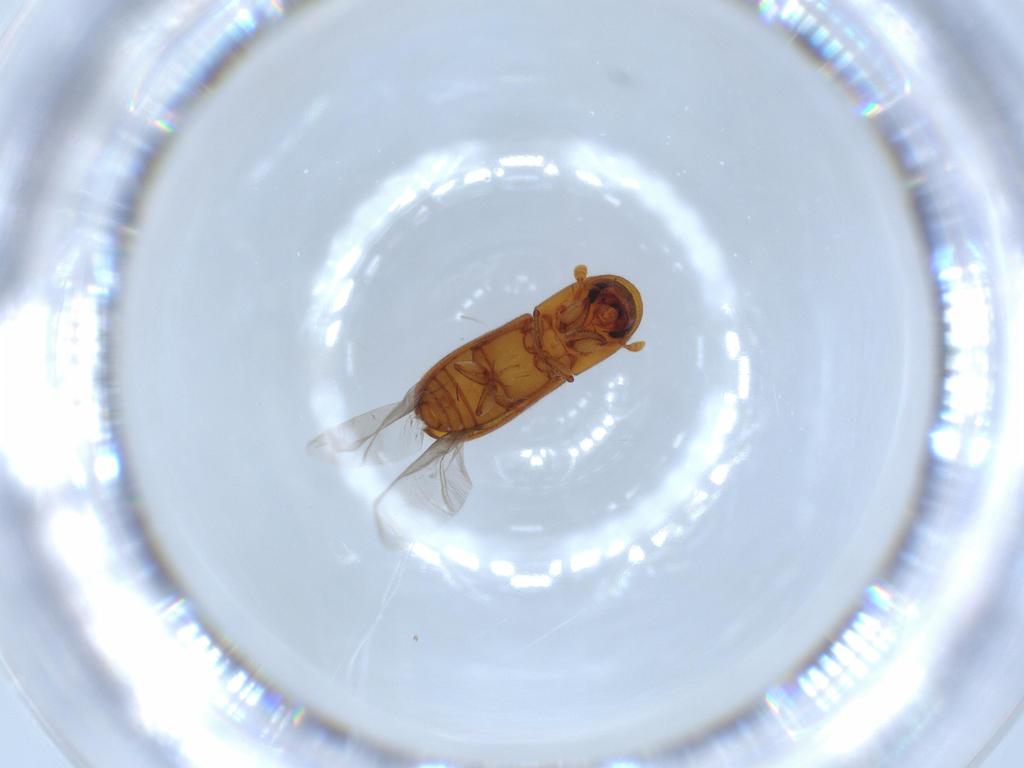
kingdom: Animalia
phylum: Arthropoda
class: Insecta
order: Coleoptera
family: Curculionidae
